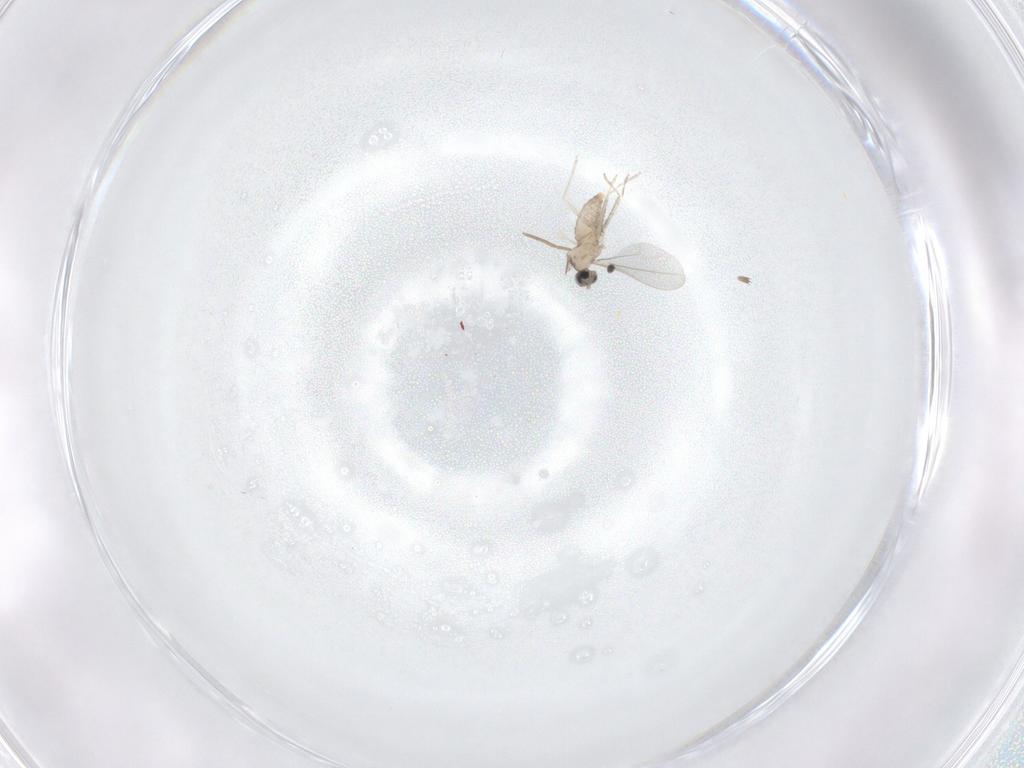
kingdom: Animalia
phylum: Arthropoda
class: Insecta
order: Diptera
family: Cecidomyiidae
